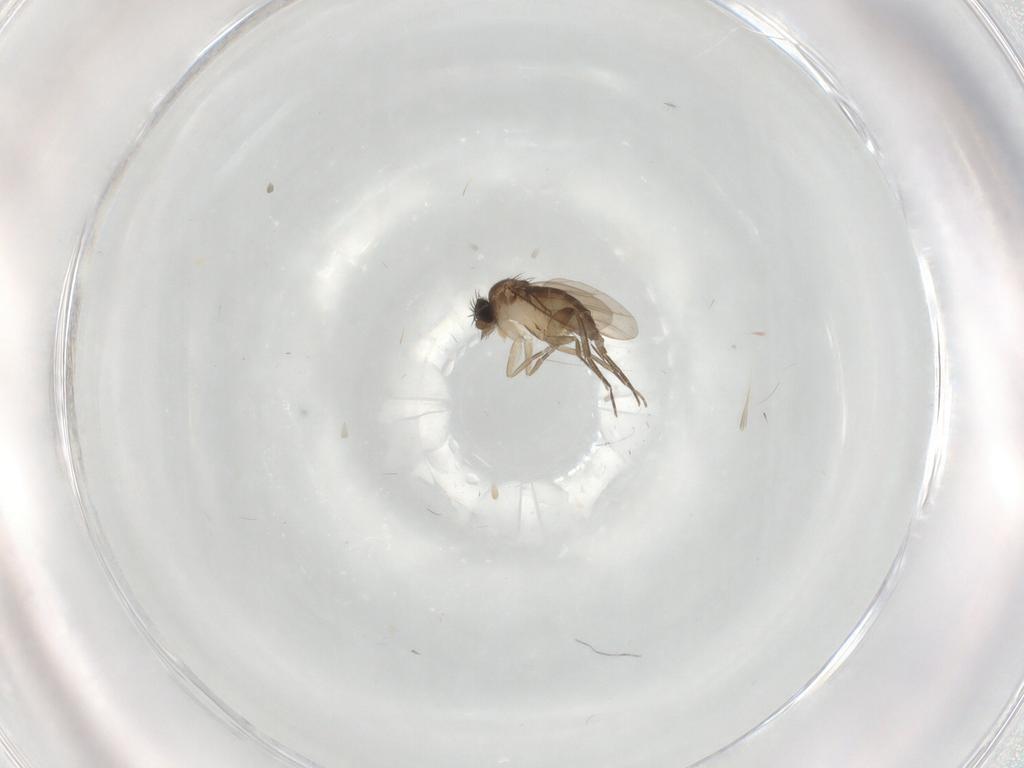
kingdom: Animalia
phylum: Arthropoda
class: Insecta
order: Diptera
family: Phoridae
